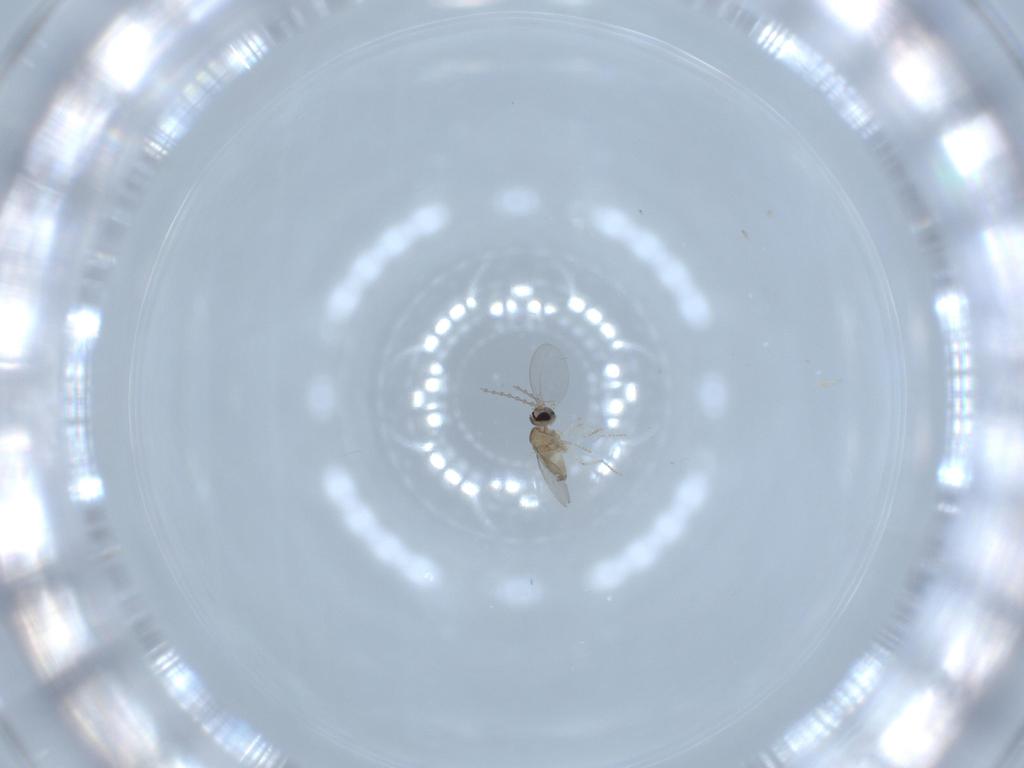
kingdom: Animalia
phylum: Arthropoda
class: Insecta
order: Diptera
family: Cecidomyiidae
